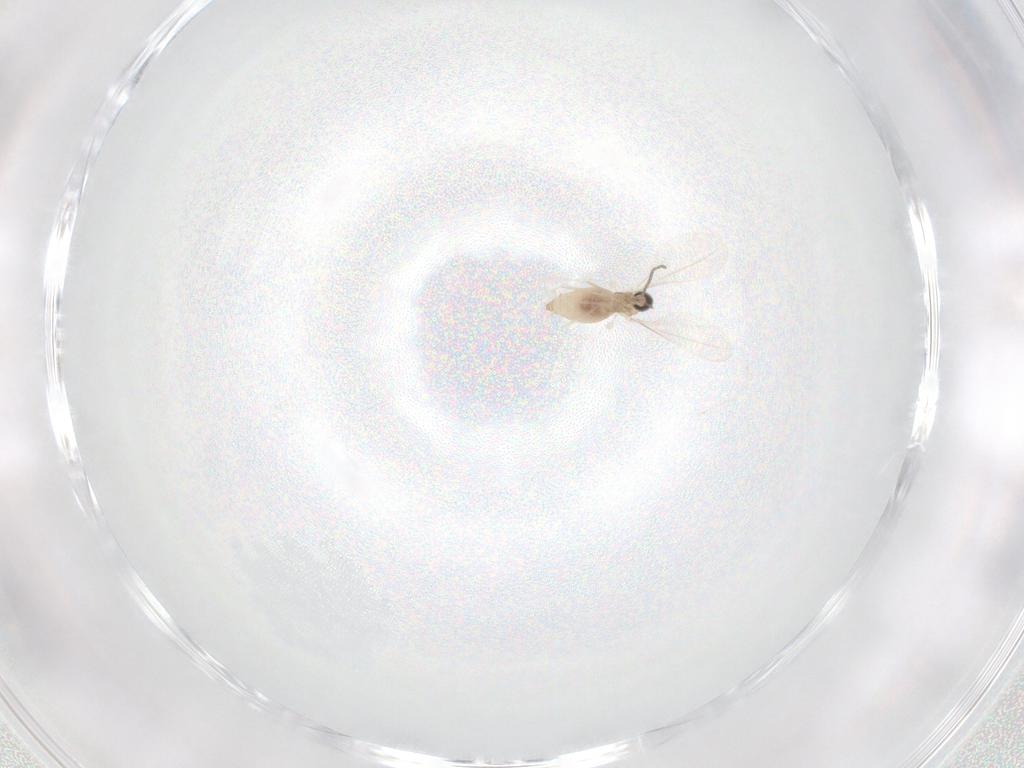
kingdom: Animalia
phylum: Arthropoda
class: Insecta
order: Diptera
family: Cecidomyiidae
